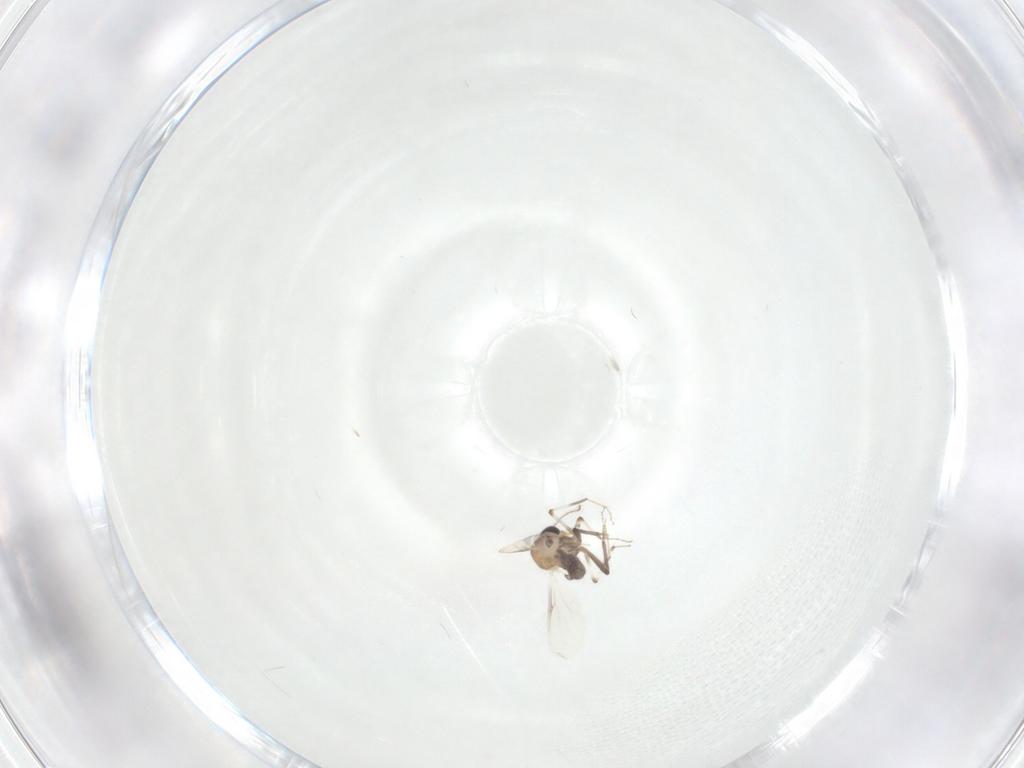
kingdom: Animalia
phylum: Arthropoda
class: Insecta
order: Diptera
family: Ceratopogonidae
